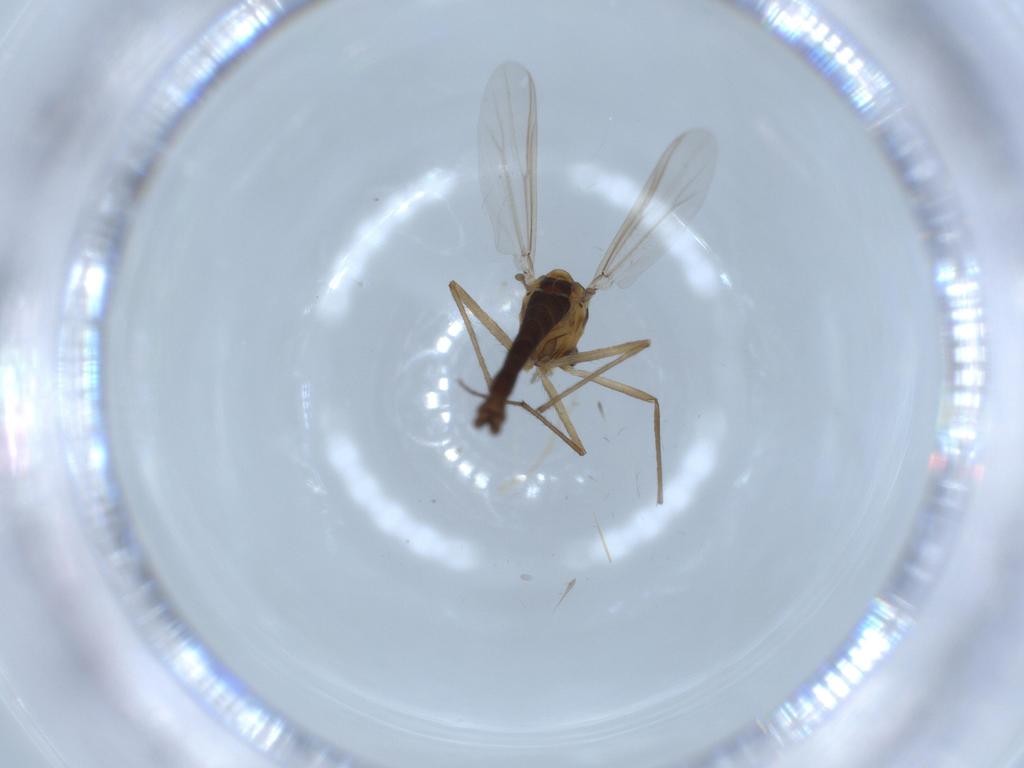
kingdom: Animalia
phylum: Arthropoda
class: Insecta
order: Diptera
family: Chironomidae
